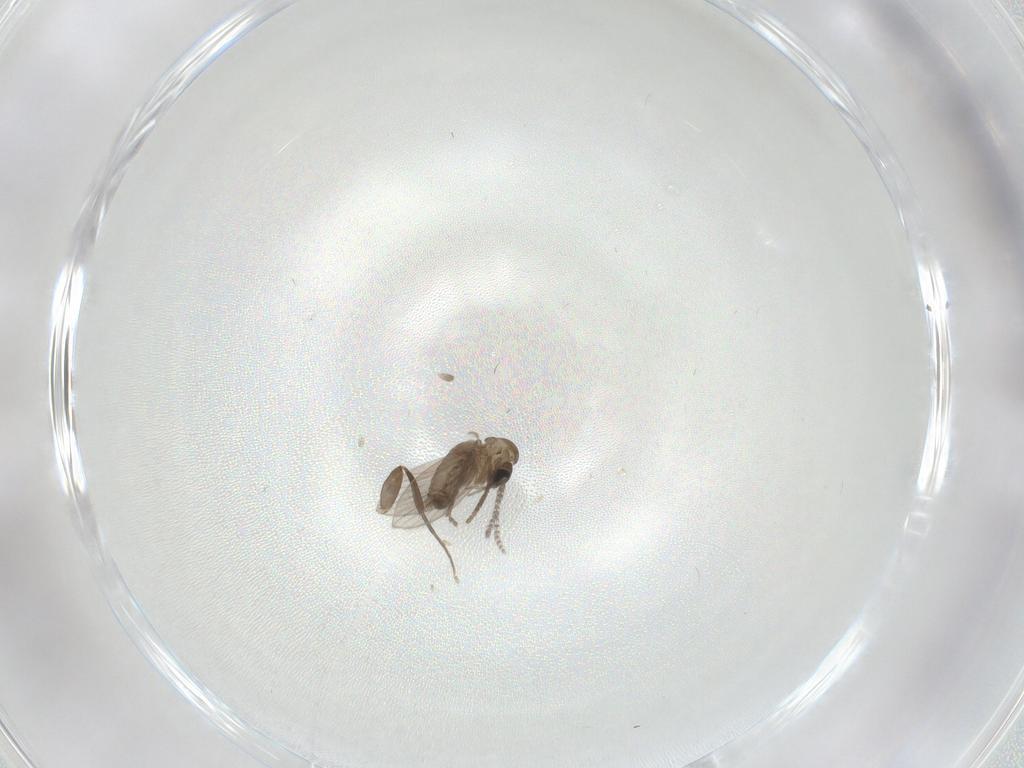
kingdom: Animalia
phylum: Arthropoda
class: Insecta
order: Diptera
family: Psychodidae
